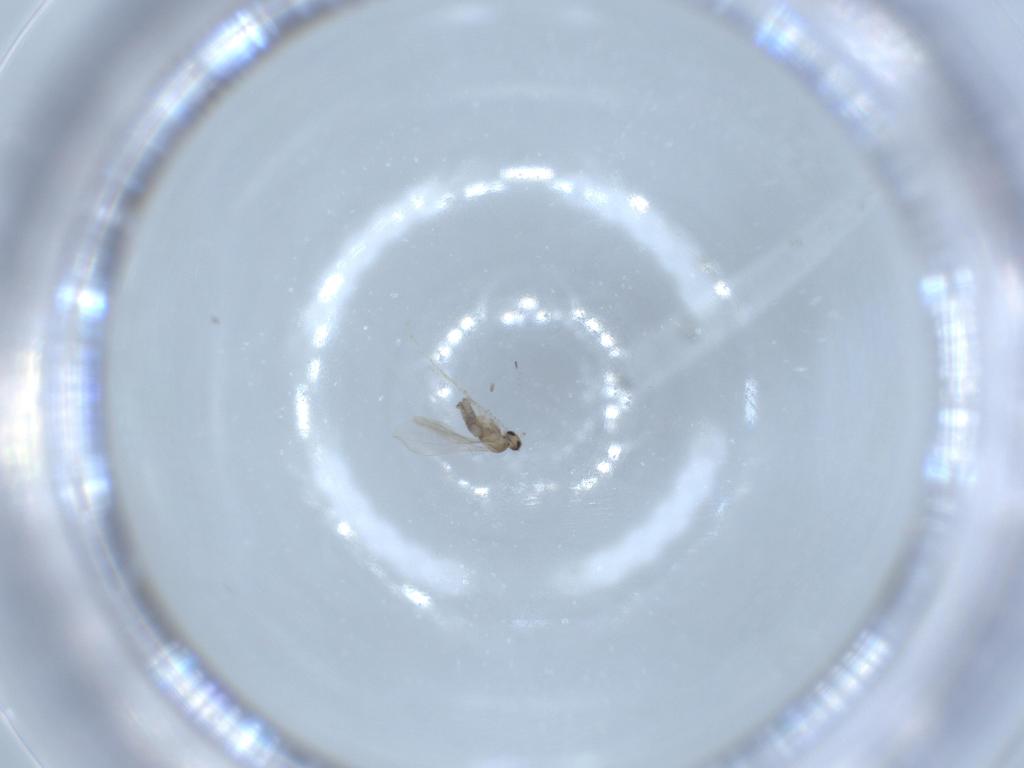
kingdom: Animalia
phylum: Arthropoda
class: Insecta
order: Diptera
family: Cecidomyiidae
